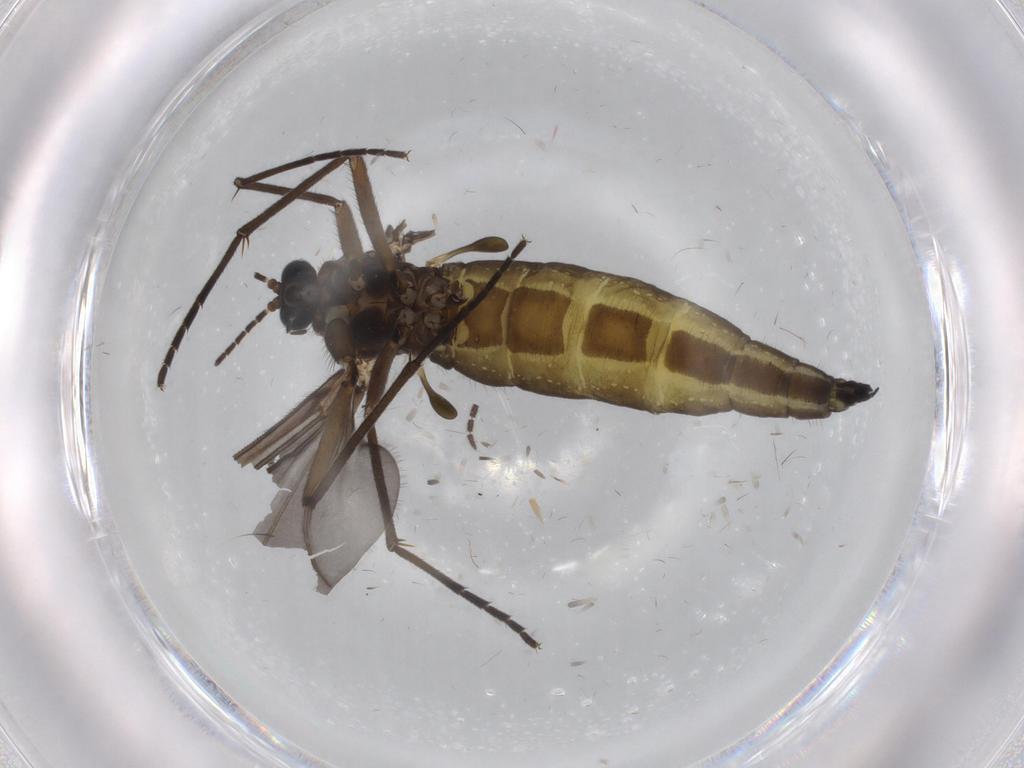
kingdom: Animalia
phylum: Arthropoda
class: Insecta
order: Diptera
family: Sciaridae
